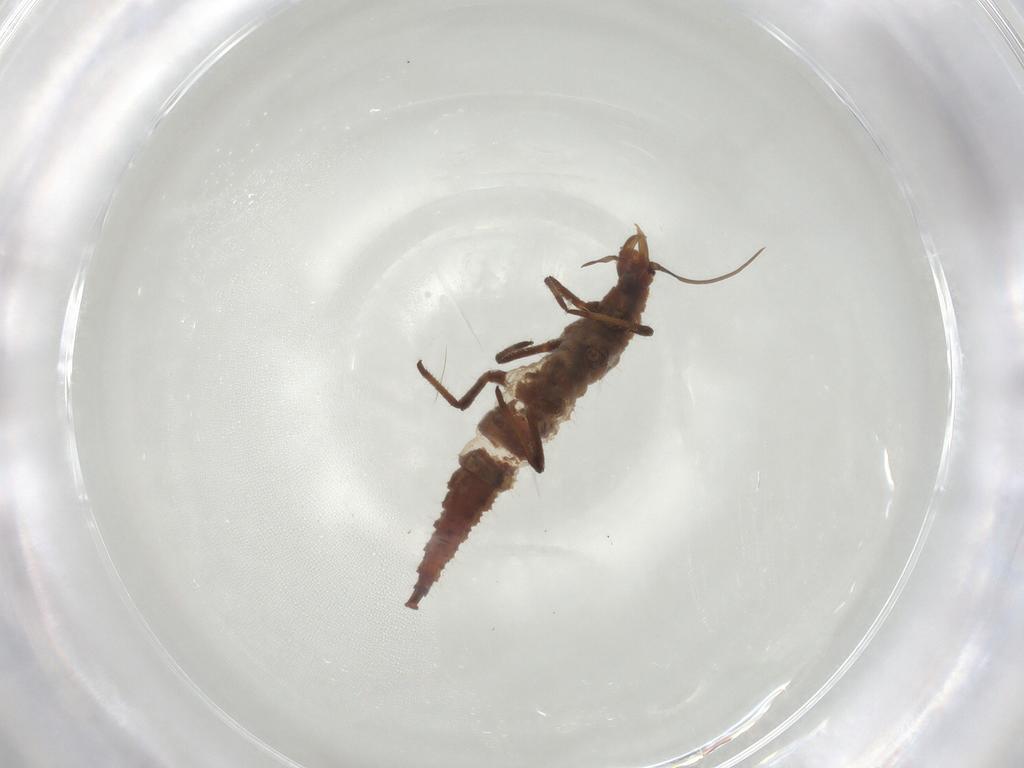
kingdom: Animalia
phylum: Arthropoda
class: Insecta
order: Neuroptera
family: Hemerobiidae
